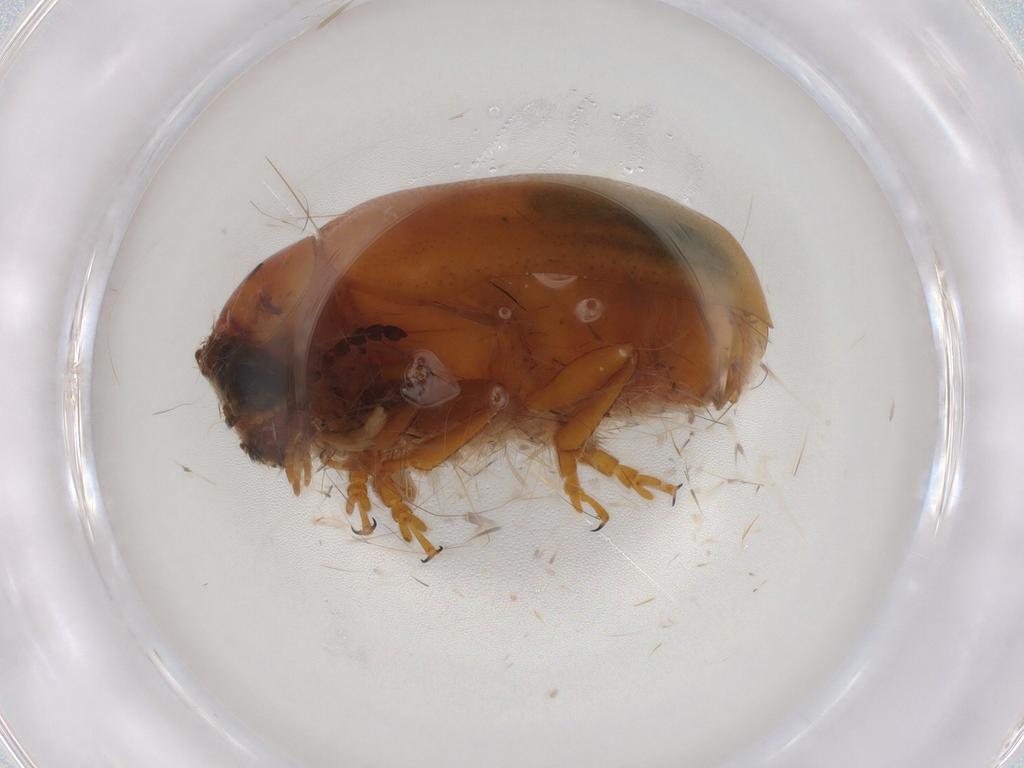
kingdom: Animalia
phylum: Arthropoda
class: Insecta
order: Coleoptera
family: Chrysomelidae
